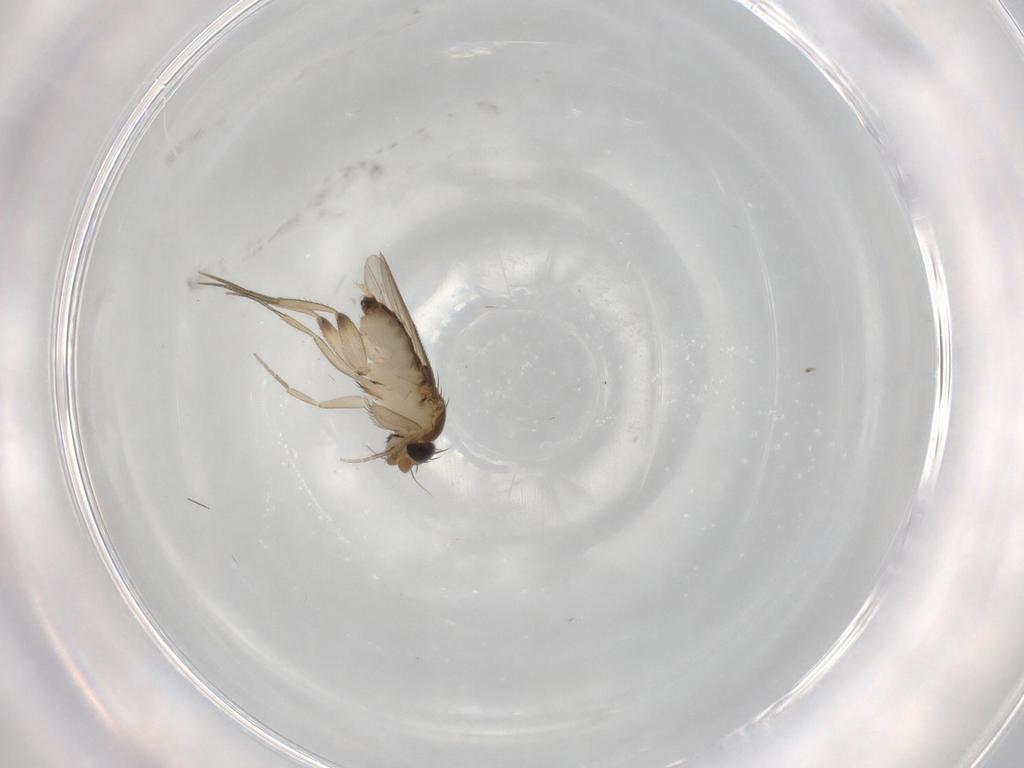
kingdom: Animalia
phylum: Arthropoda
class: Insecta
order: Diptera
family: Phoridae
